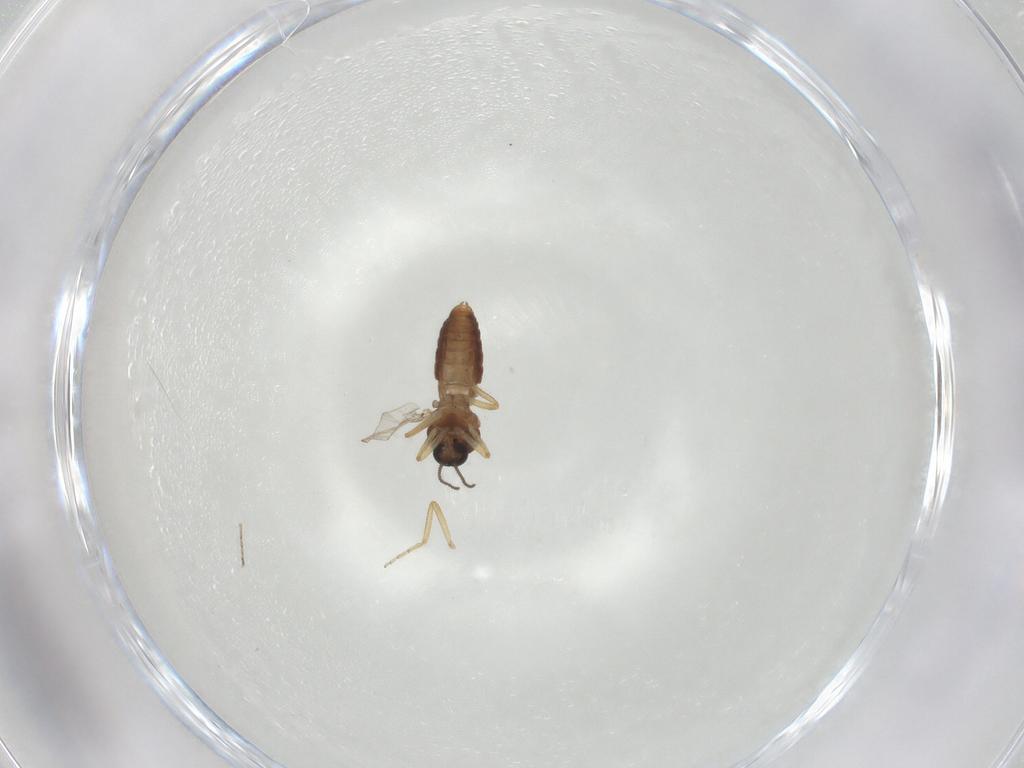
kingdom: Animalia
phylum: Arthropoda
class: Insecta
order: Diptera
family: Ceratopogonidae
